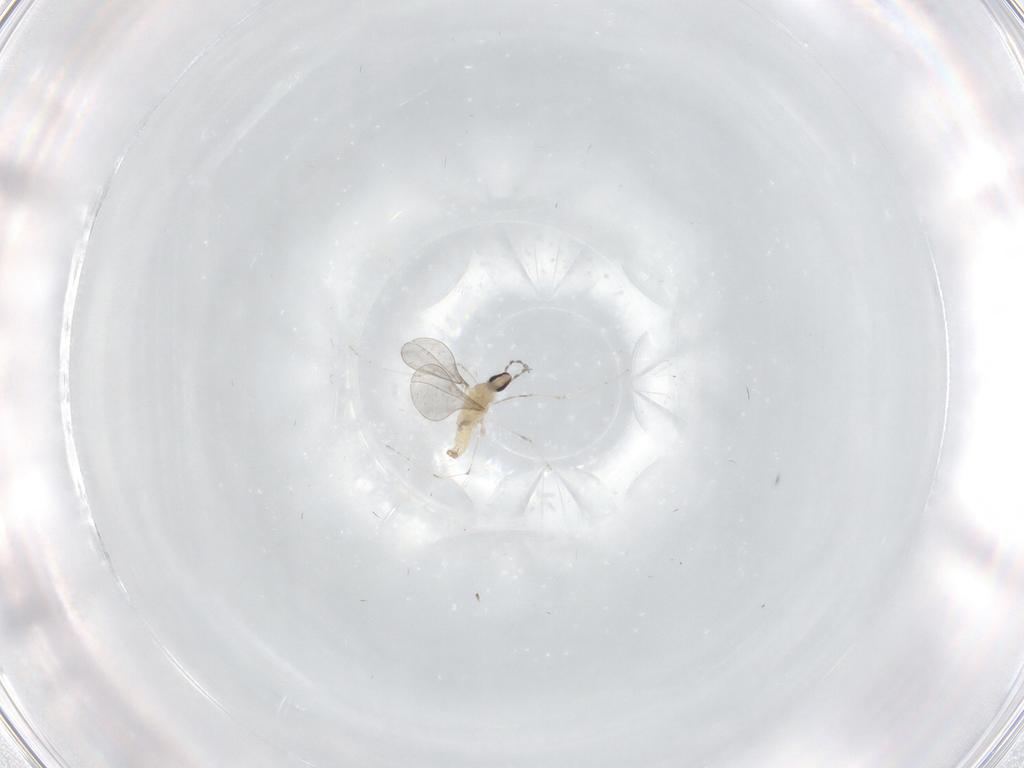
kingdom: Animalia
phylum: Arthropoda
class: Insecta
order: Diptera
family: Cecidomyiidae
